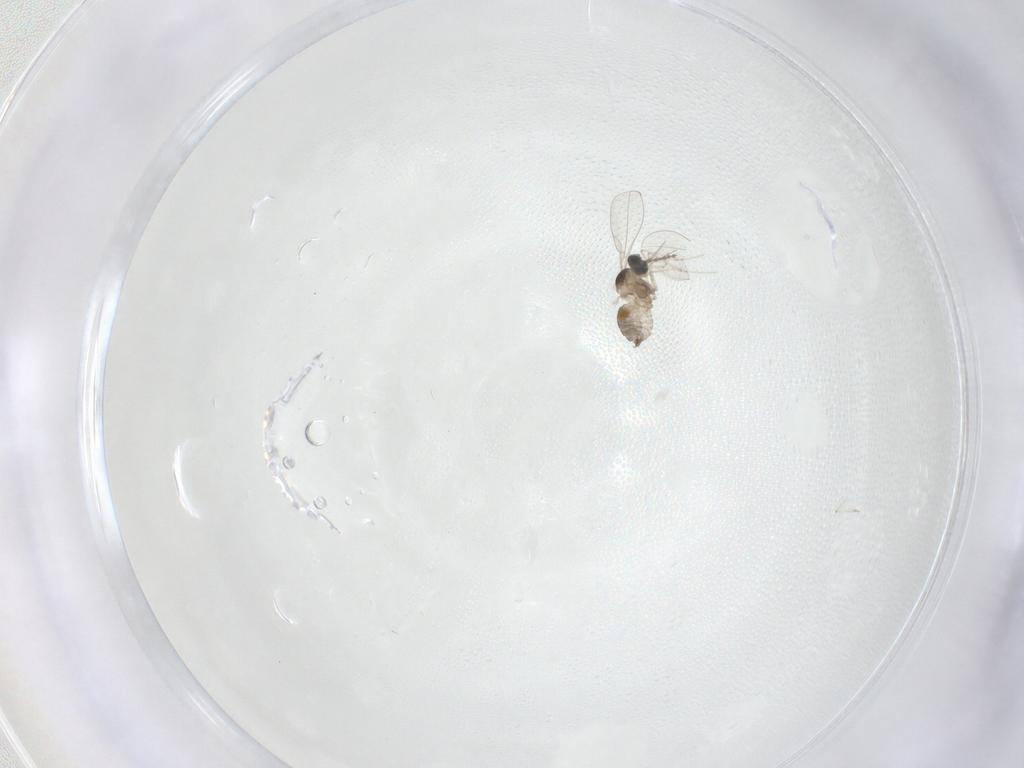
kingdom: Animalia
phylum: Arthropoda
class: Insecta
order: Diptera
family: Cecidomyiidae
